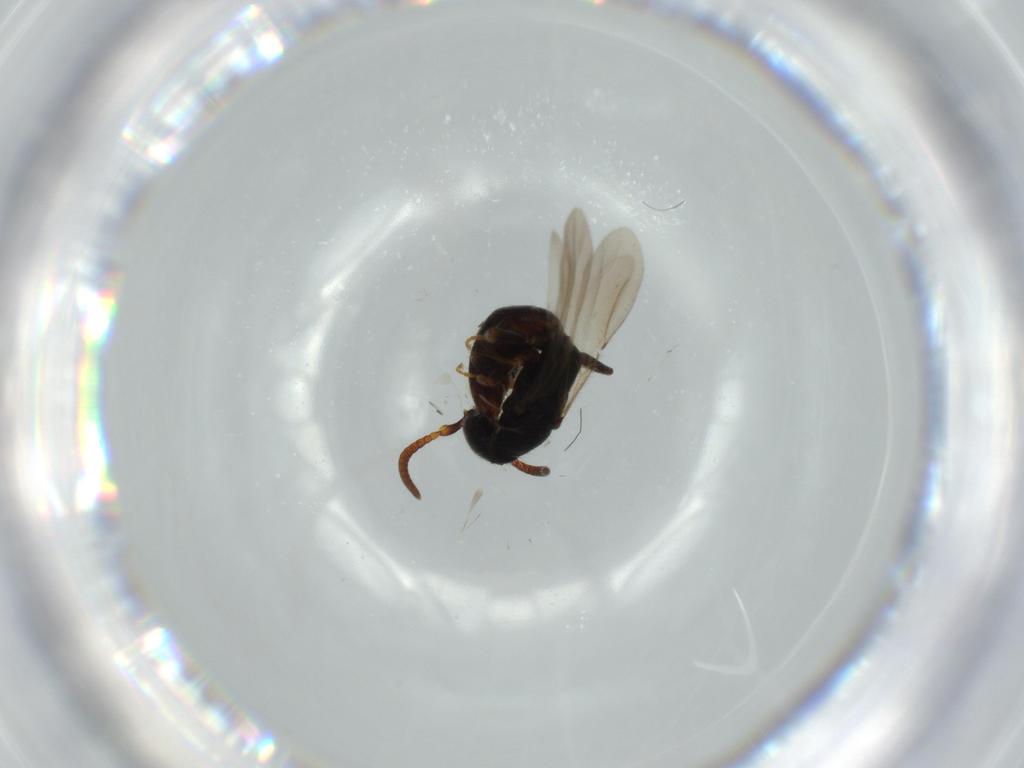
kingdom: Animalia
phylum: Arthropoda
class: Insecta
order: Hymenoptera
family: Bethylidae
